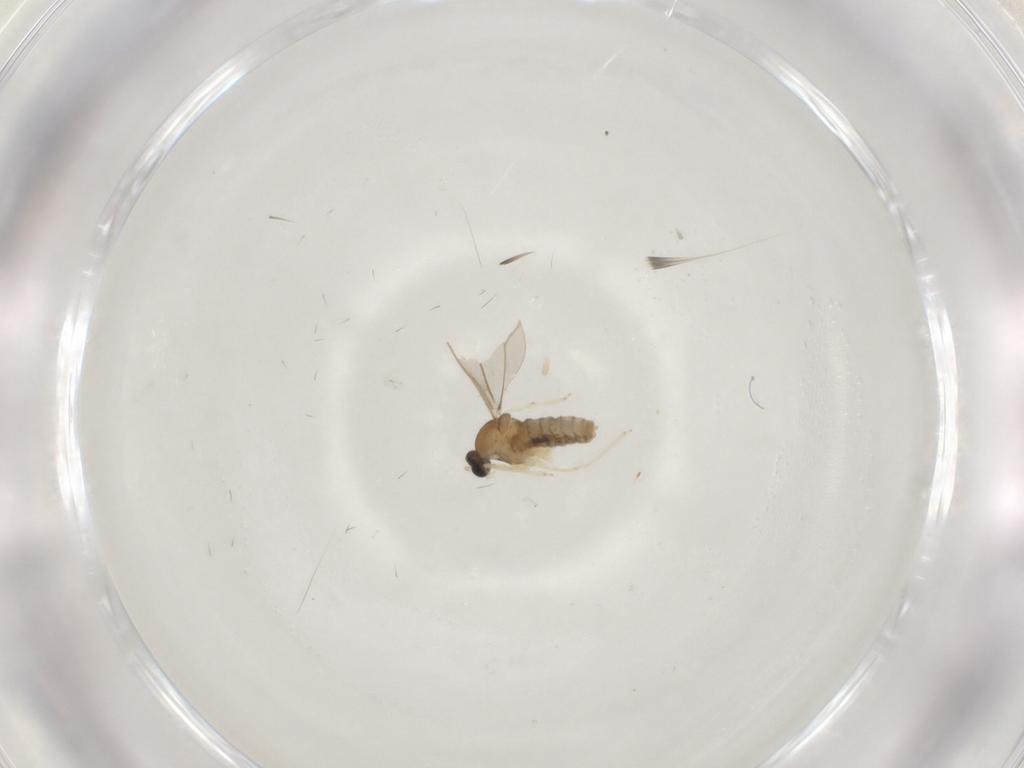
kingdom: Animalia
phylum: Arthropoda
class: Insecta
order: Diptera
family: Cecidomyiidae
